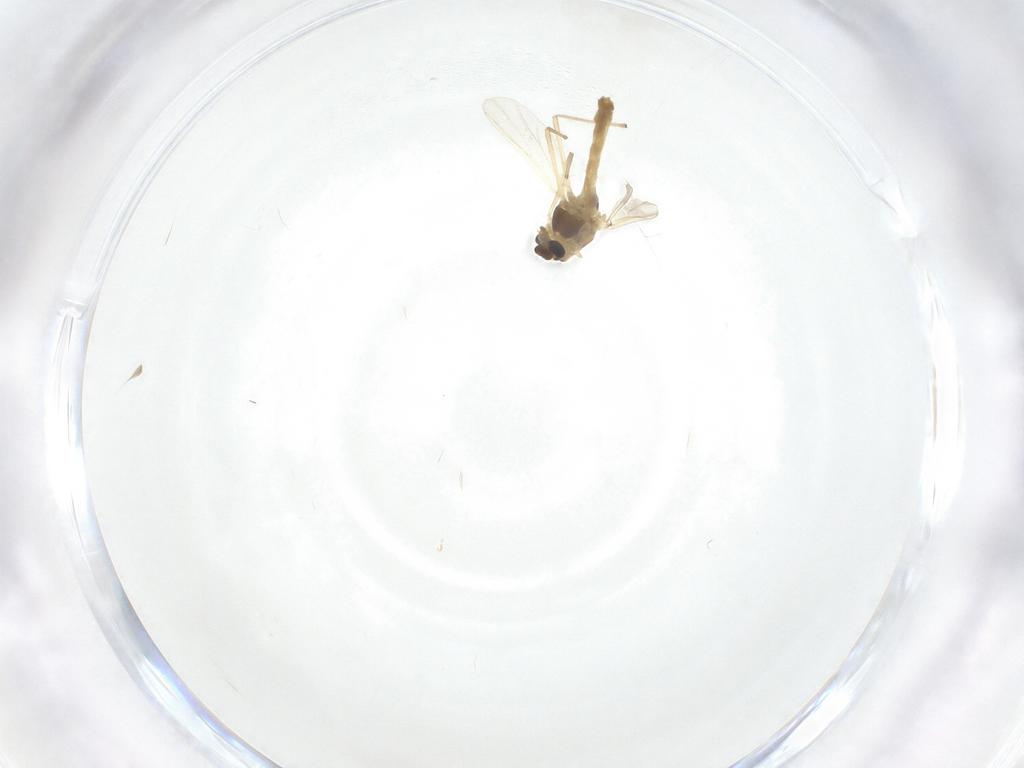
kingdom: Animalia
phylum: Arthropoda
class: Insecta
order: Diptera
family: Chironomidae
